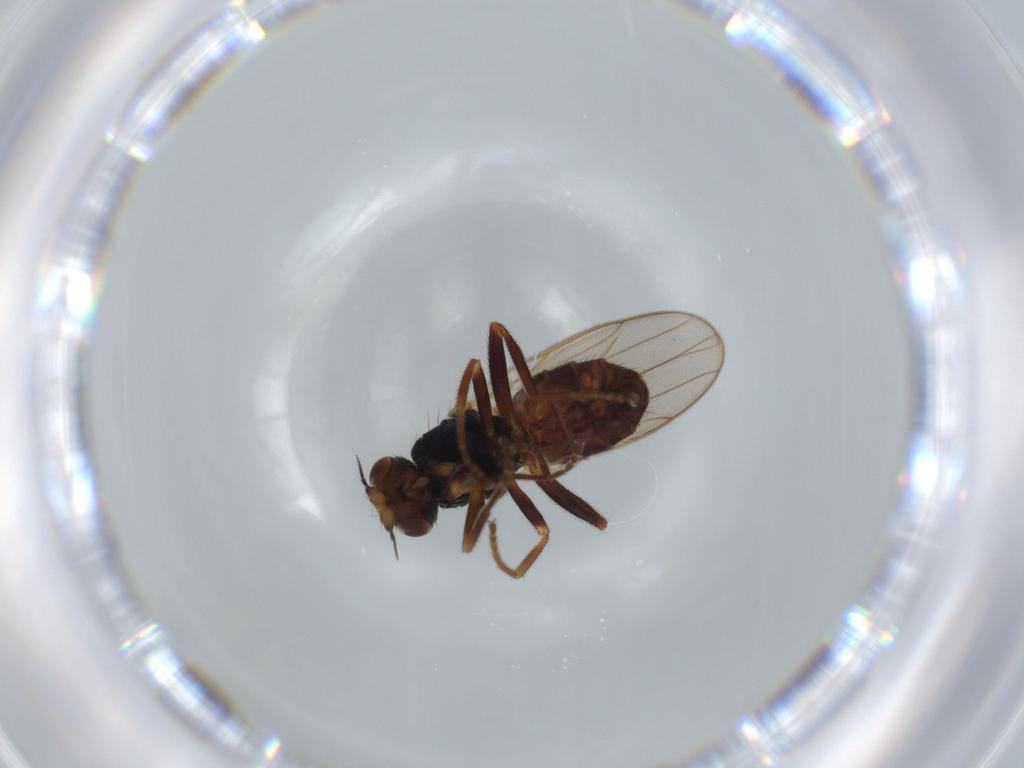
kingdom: Animalia
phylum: Arthropoda
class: Insecta
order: Diptera
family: Chloropidae
